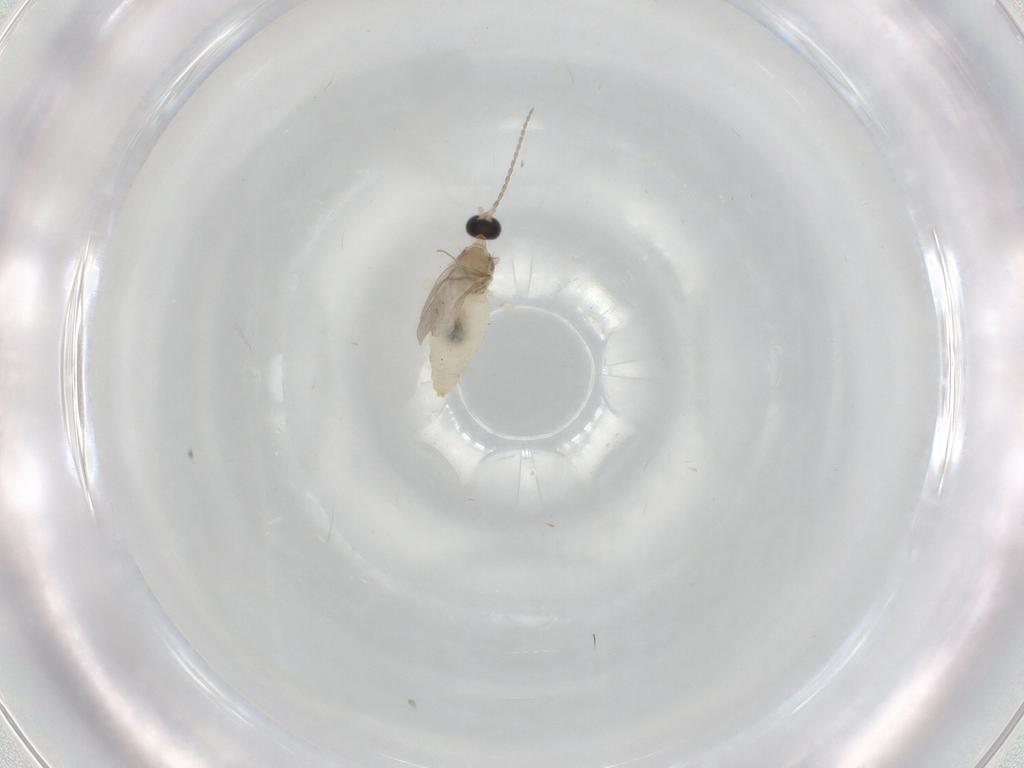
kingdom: Animalia
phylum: Arthropoda
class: Insecta
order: Diptera
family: Cecidomyiidae
